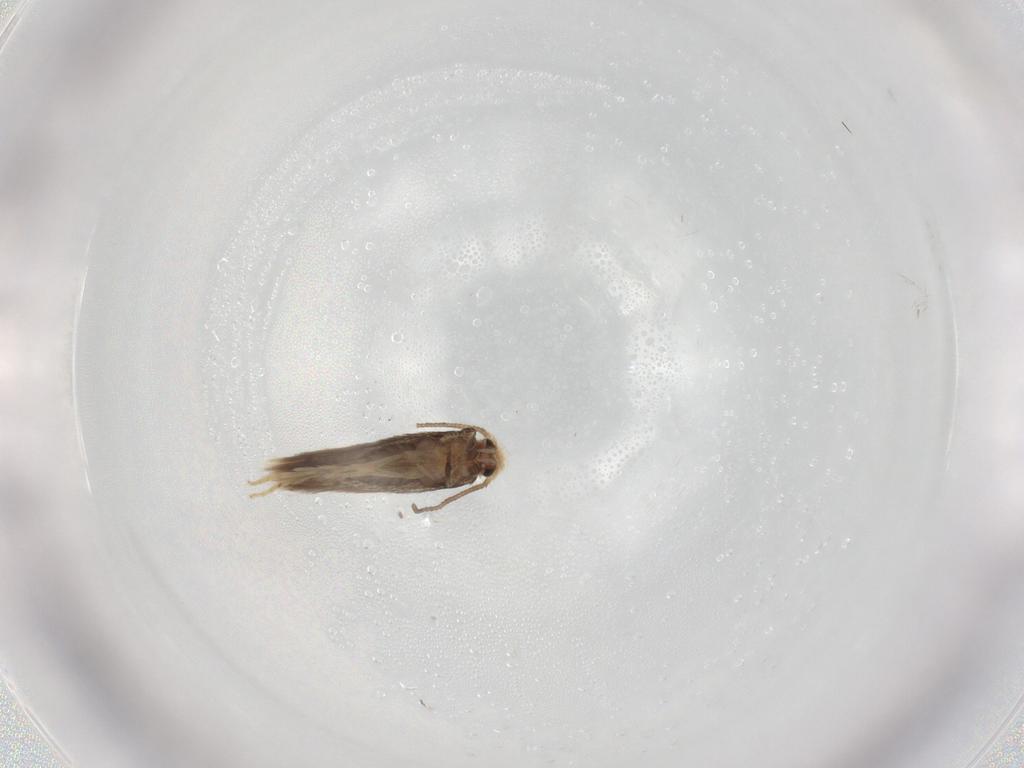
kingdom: Animalia
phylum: Arthropoda
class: Insecta
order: Lepidoptera
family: Nepticulidae
